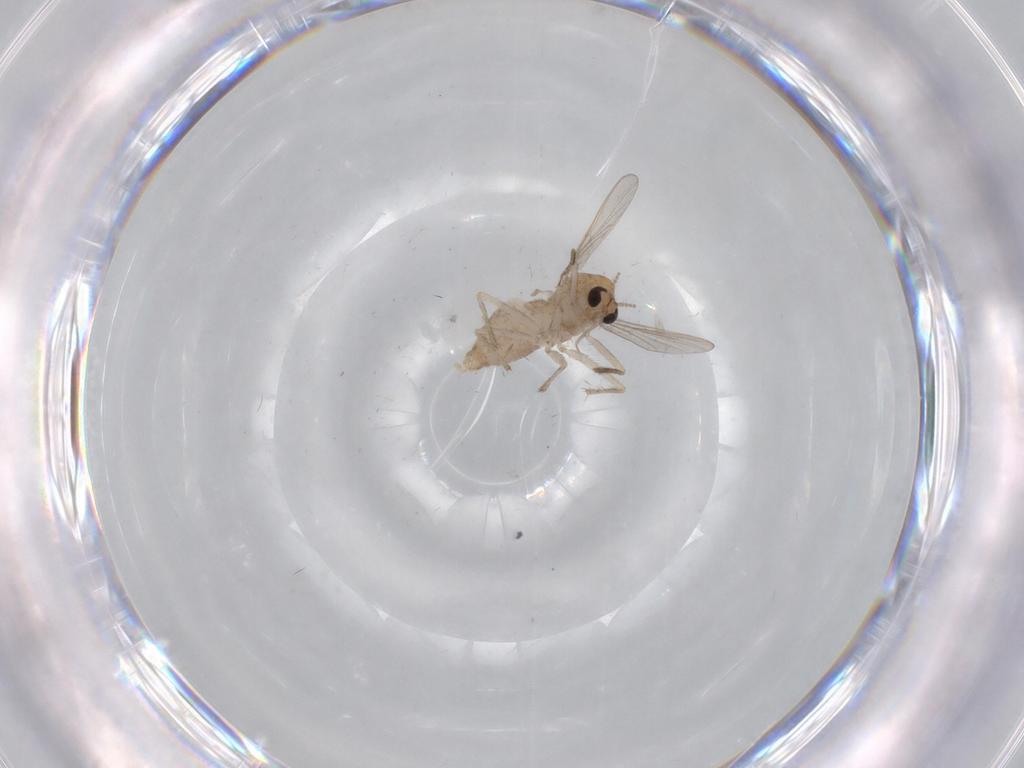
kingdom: Animalia
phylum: Arthropoda
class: Insecta
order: Diptera
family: Chironomidae
